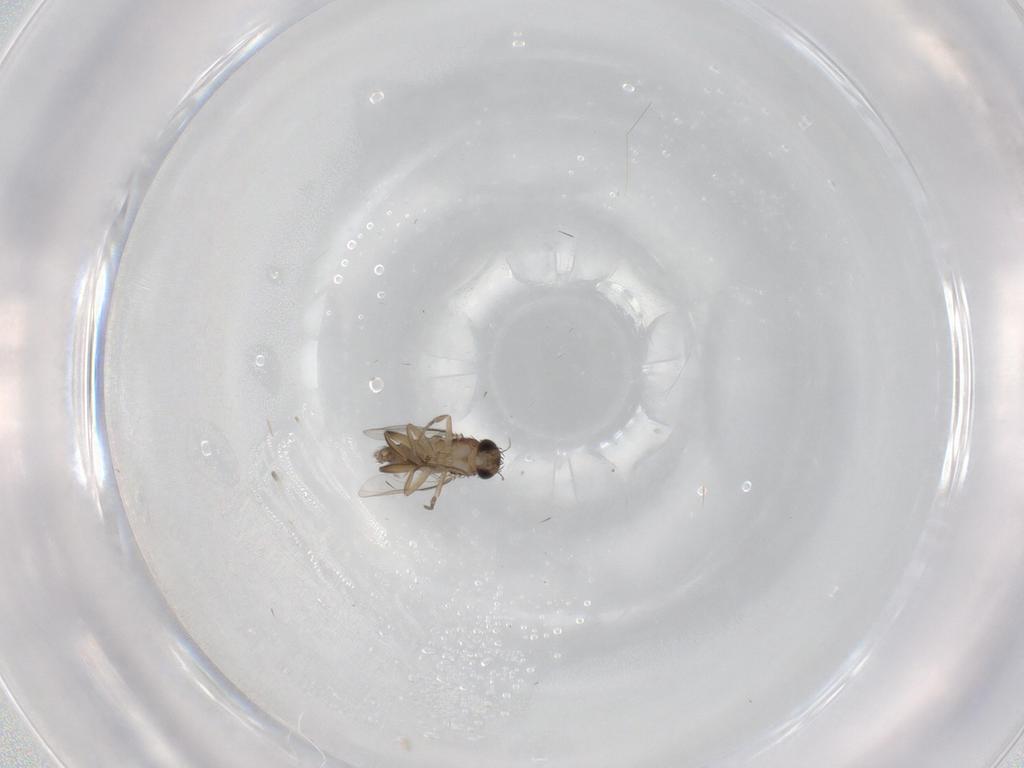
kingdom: Animalia
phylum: Arthropoda
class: Insecta
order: Diptera
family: Phoridae
